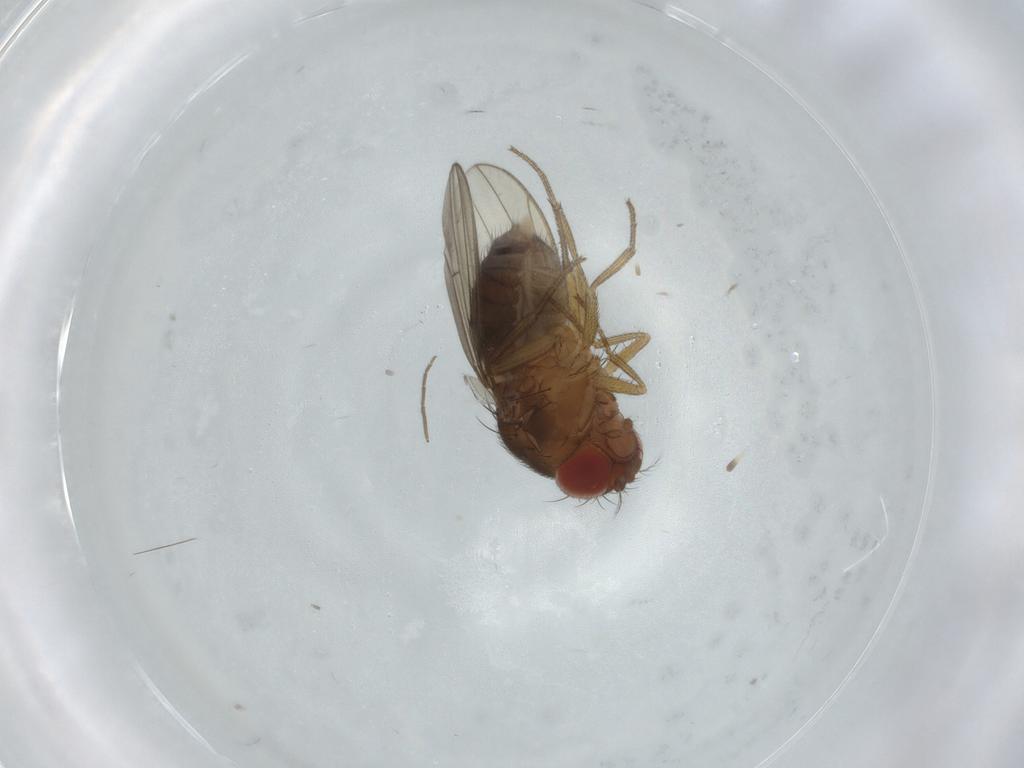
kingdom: Animalia
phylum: Arthropoda
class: Insecta
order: Diptera
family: Drosophilidae
